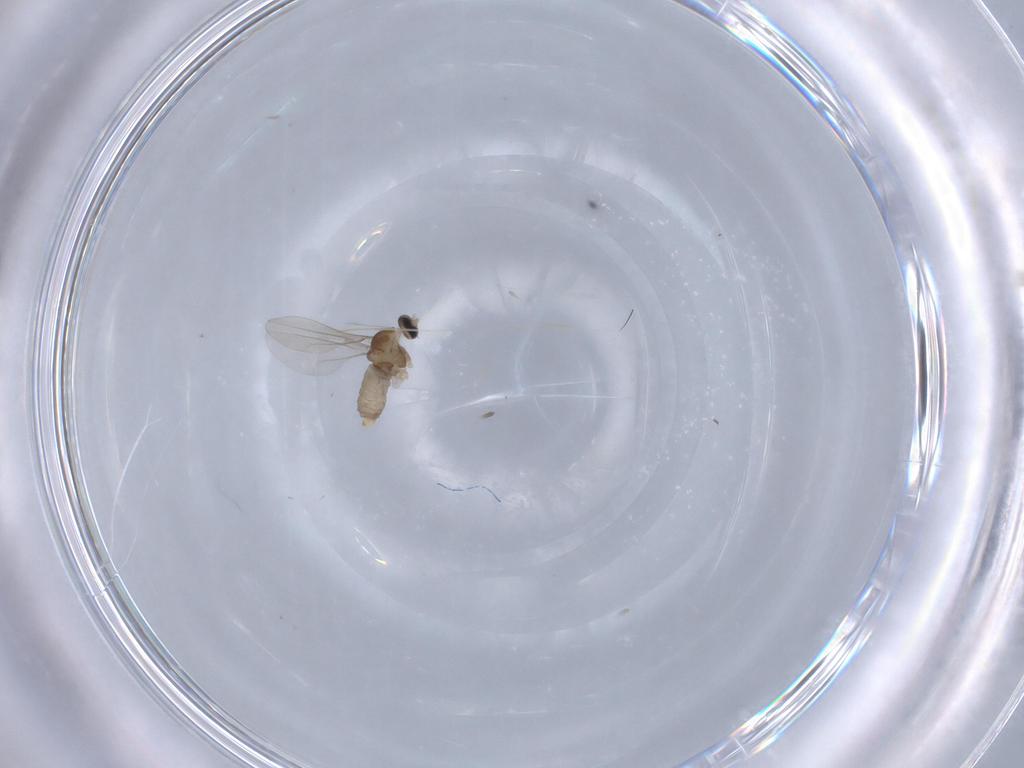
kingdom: Animalia
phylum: Arthropoda
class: Insecta
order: Diptera
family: Cecidomyiidae
